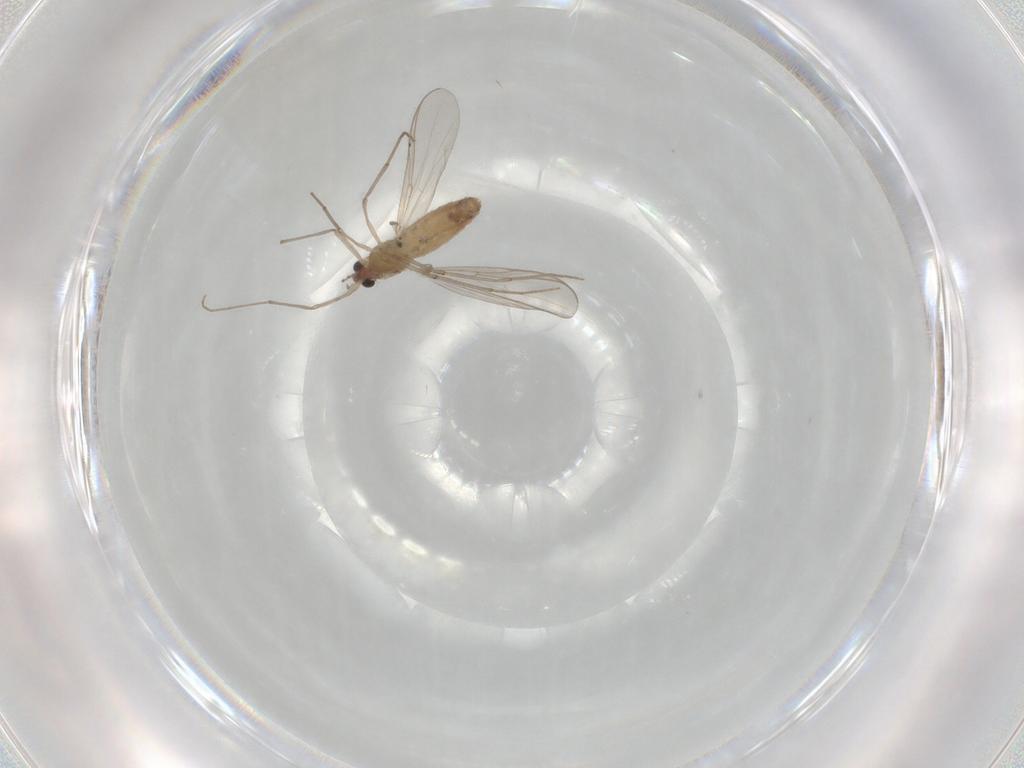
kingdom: Animalia
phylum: Arthropoda
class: Insecta
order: Diptera
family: Chironomidae
